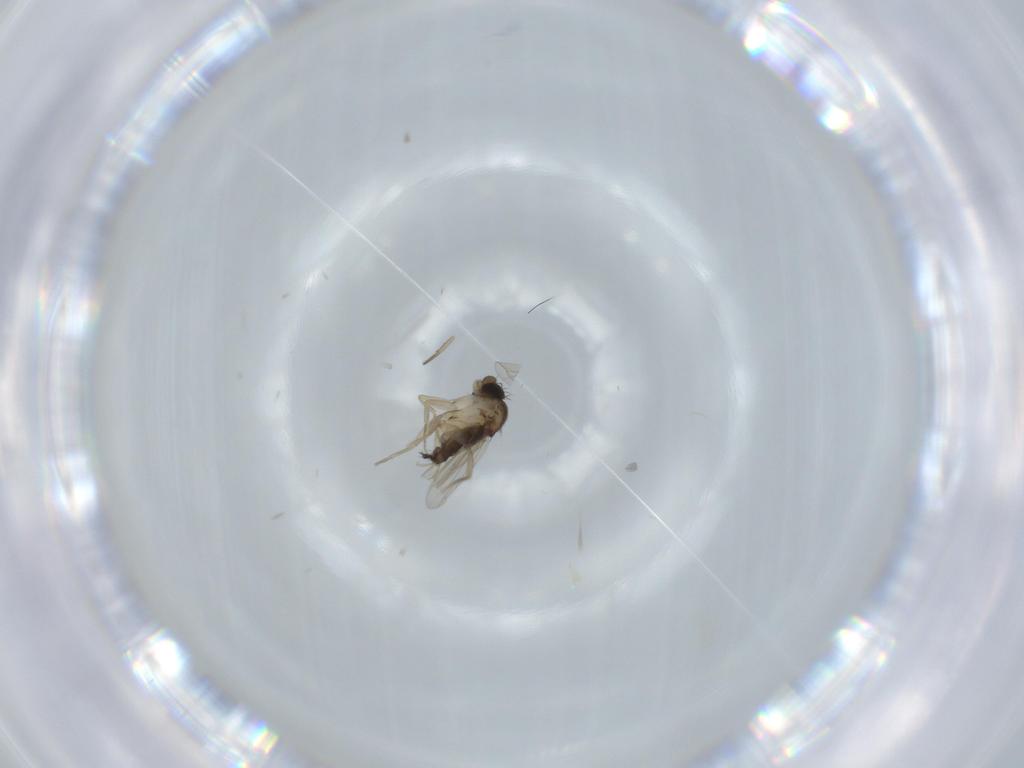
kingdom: Animalia
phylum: Arthropoda
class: Insecta
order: Diptera
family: Phoridae
